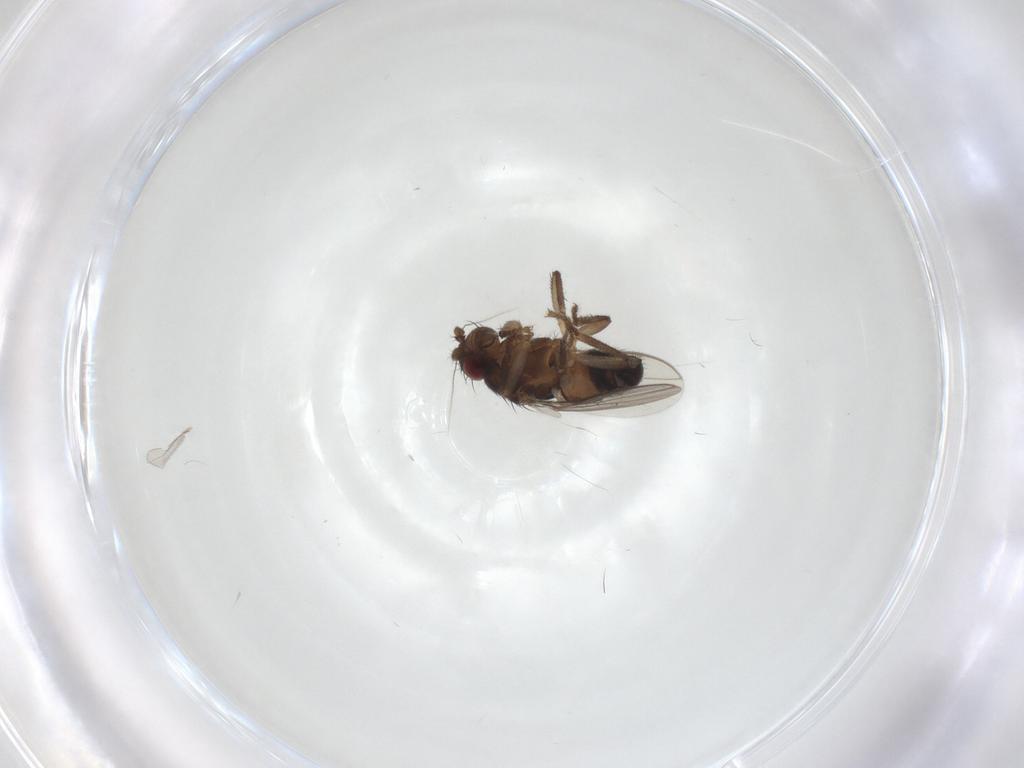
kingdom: Animalia
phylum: Arthropoda
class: Insecta
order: Diptera
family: Sphaeroceridae
